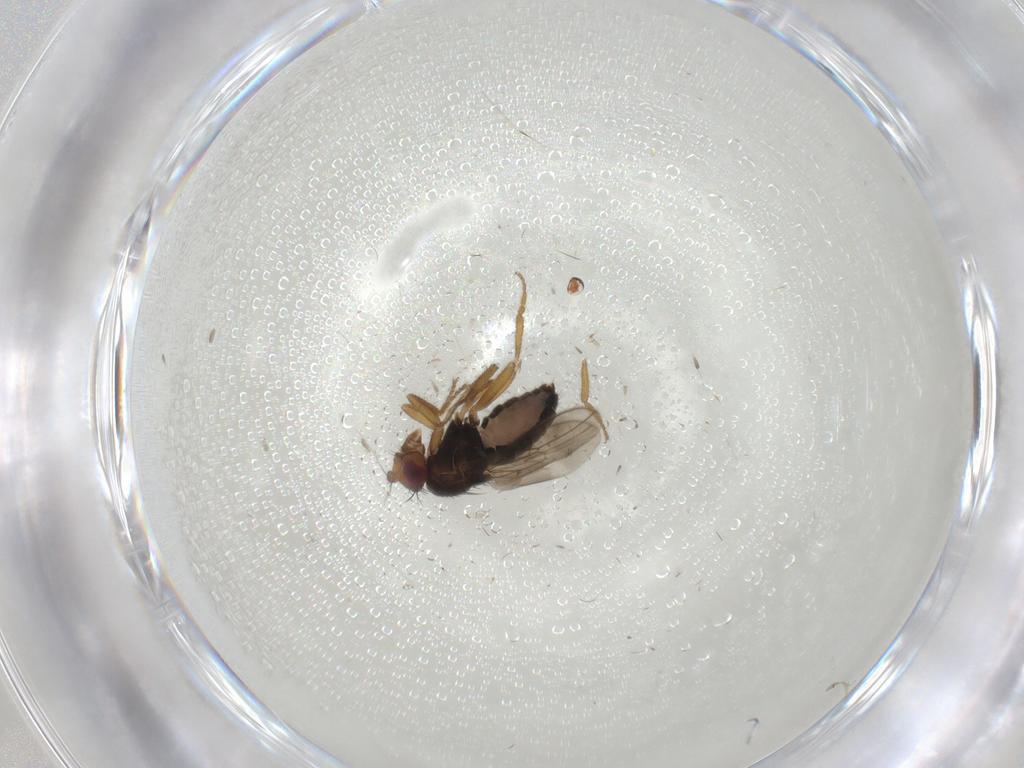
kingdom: Animalia
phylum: Arthropoda
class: Insecta
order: Diptera
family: Sphaeroceridae
